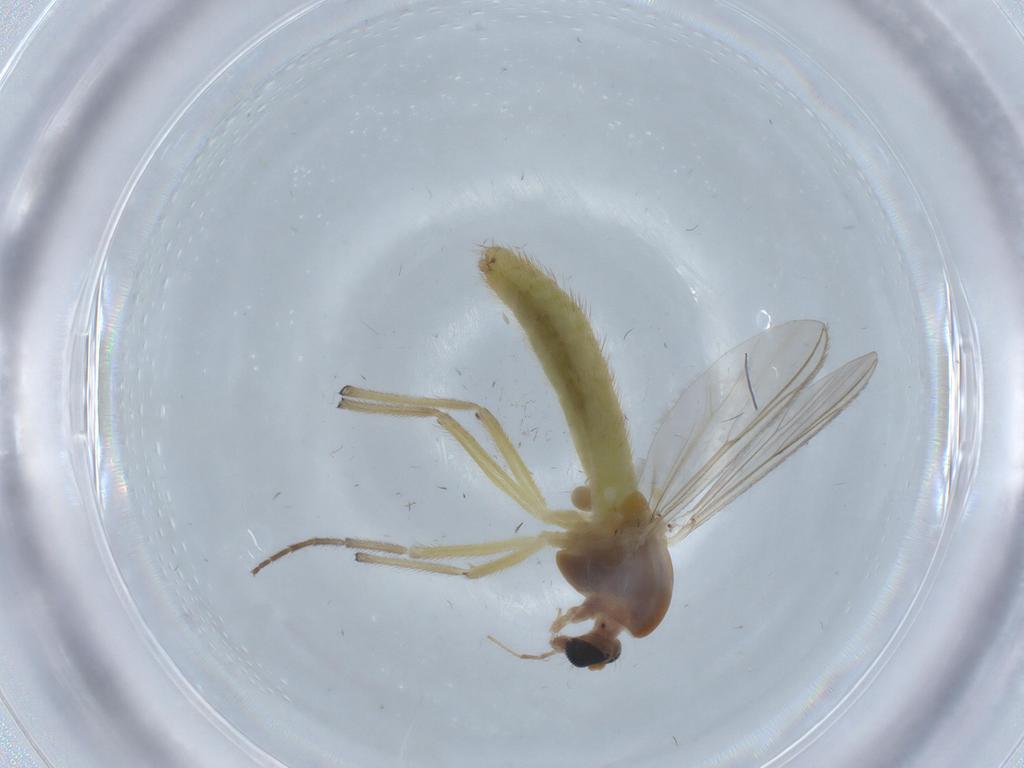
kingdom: Animalia
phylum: Arthropoda
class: Insecta
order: Diptera
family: Chironomidae
